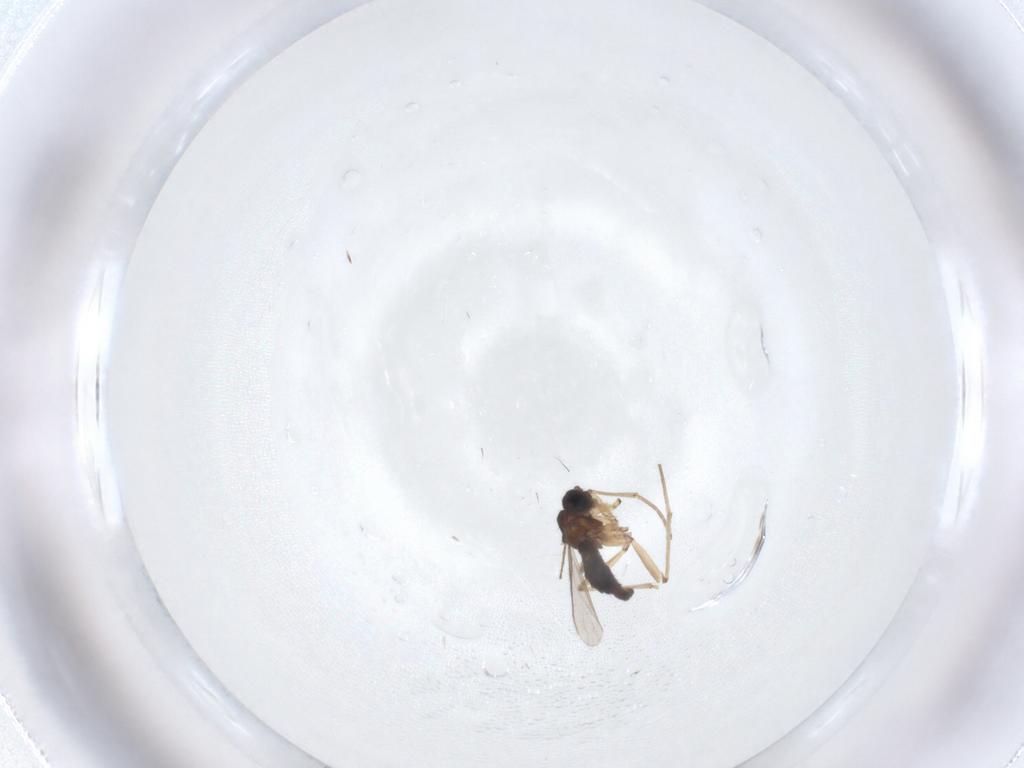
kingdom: Animalia
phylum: Arthropoda
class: Insecta
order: Diptera
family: Sciaridae
